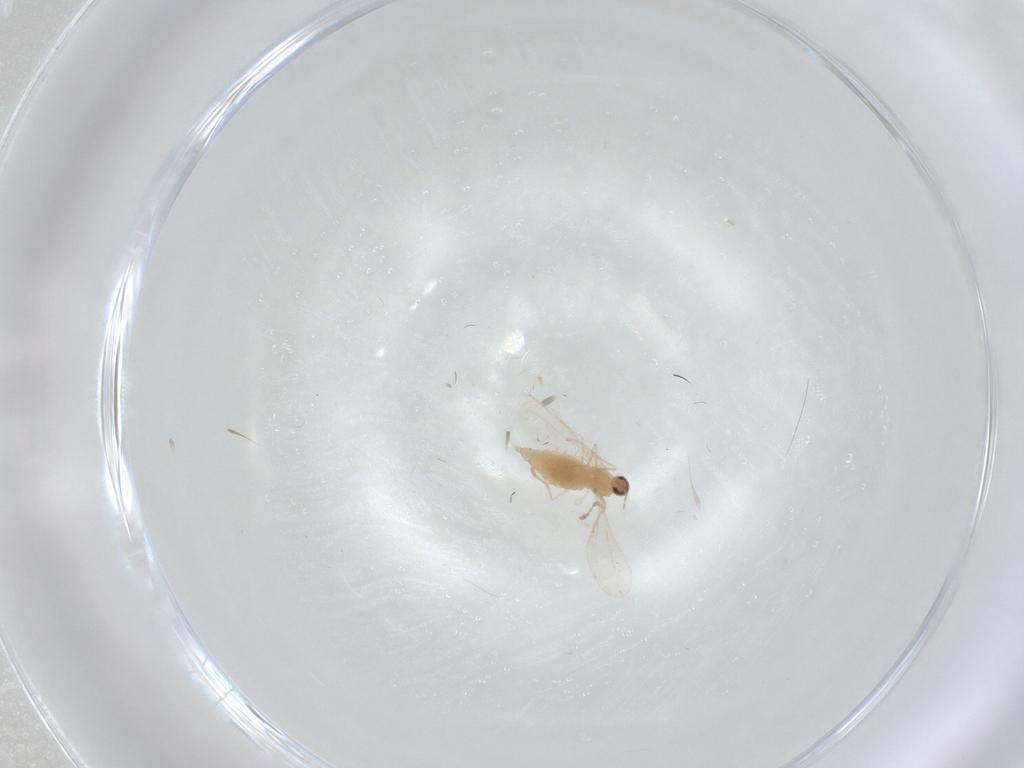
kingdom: Animalia
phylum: Arthropoda
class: Insecta
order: Diptera
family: Cecidomyiidae
